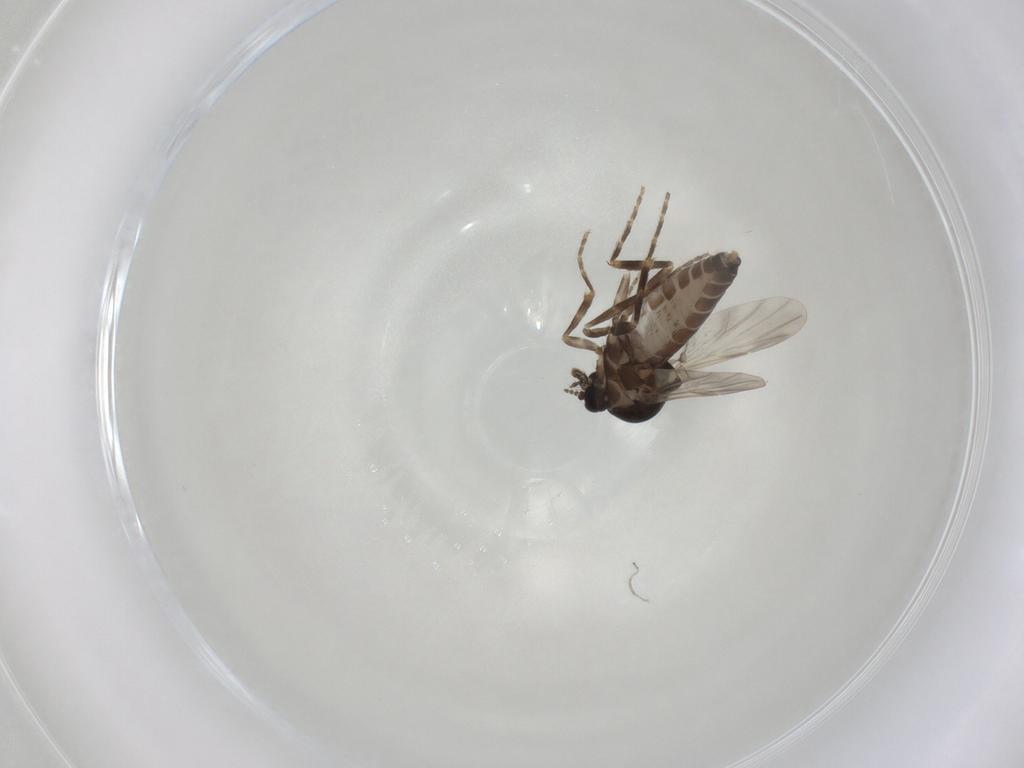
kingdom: Animalia
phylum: Arthropoda
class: Insecta
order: Diptera
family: Ceratopogonidae
